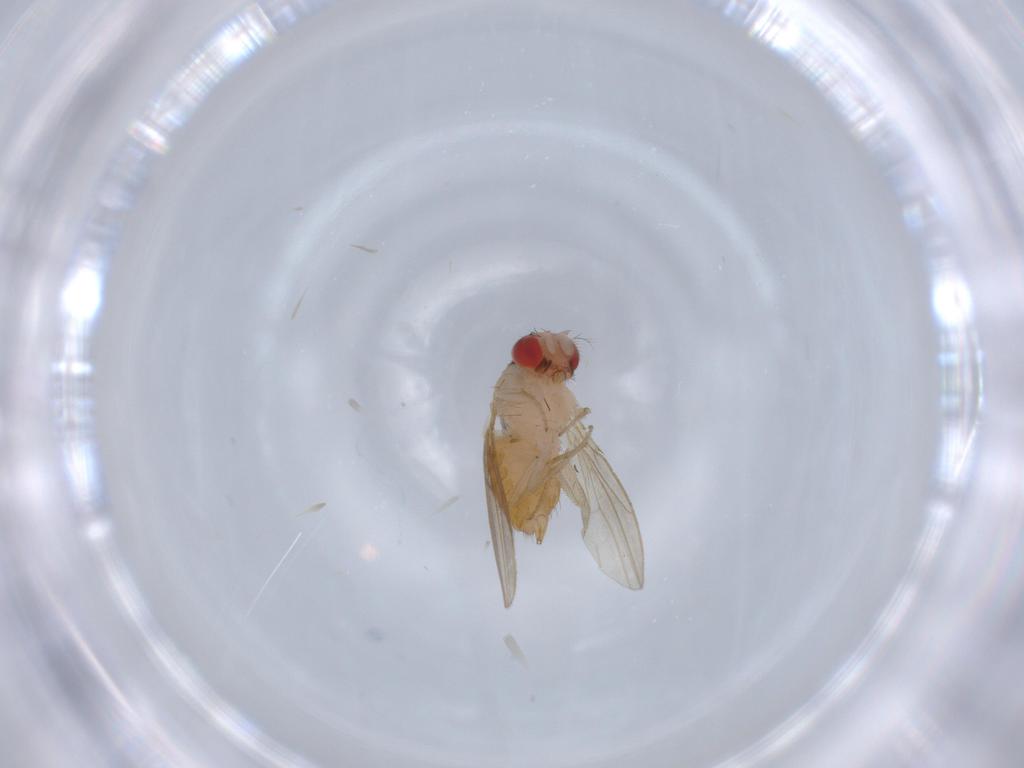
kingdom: Animalia
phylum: Arthropoda
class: Insecta
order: Diptera
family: Drosophilidae
